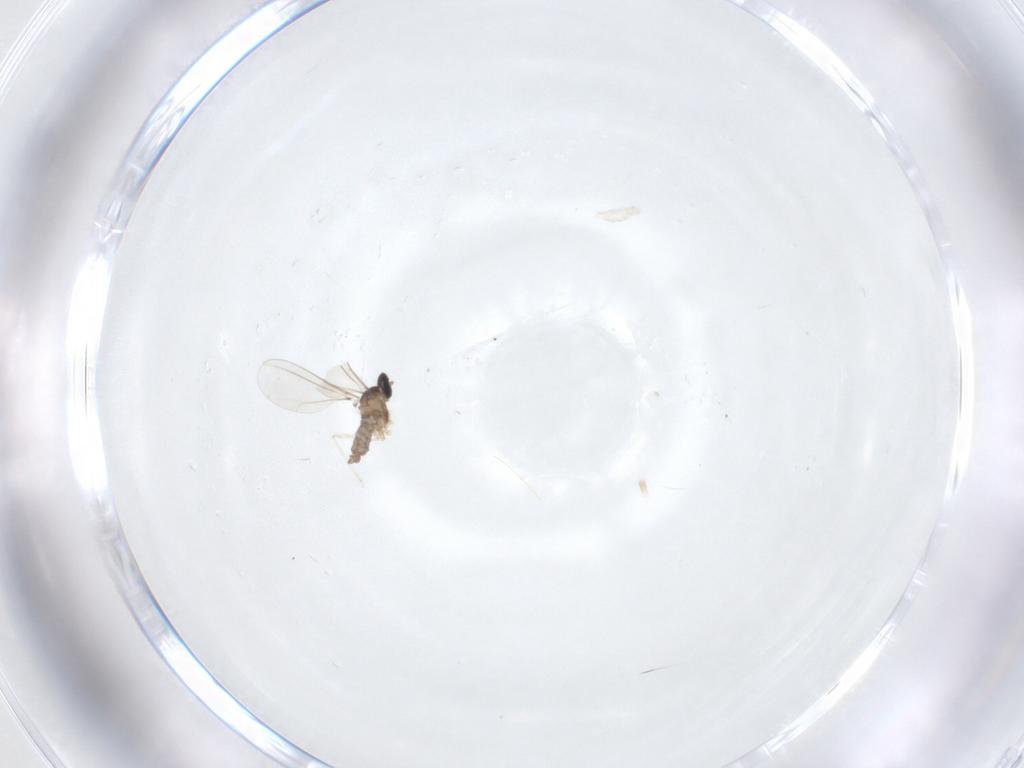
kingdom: Animalia
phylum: Arthropoda
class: Insecta
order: Diptera
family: Cecidomyiidae
